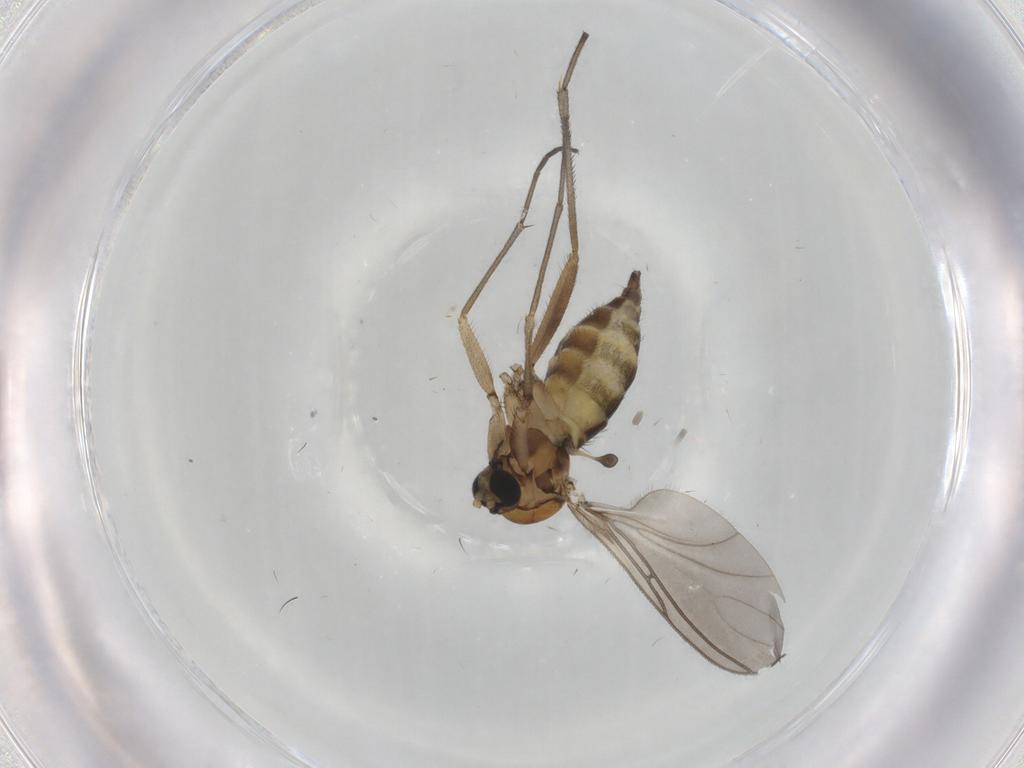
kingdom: Animalia
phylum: Arthropoda
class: Insecta
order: Diptera
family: Sciaridae
